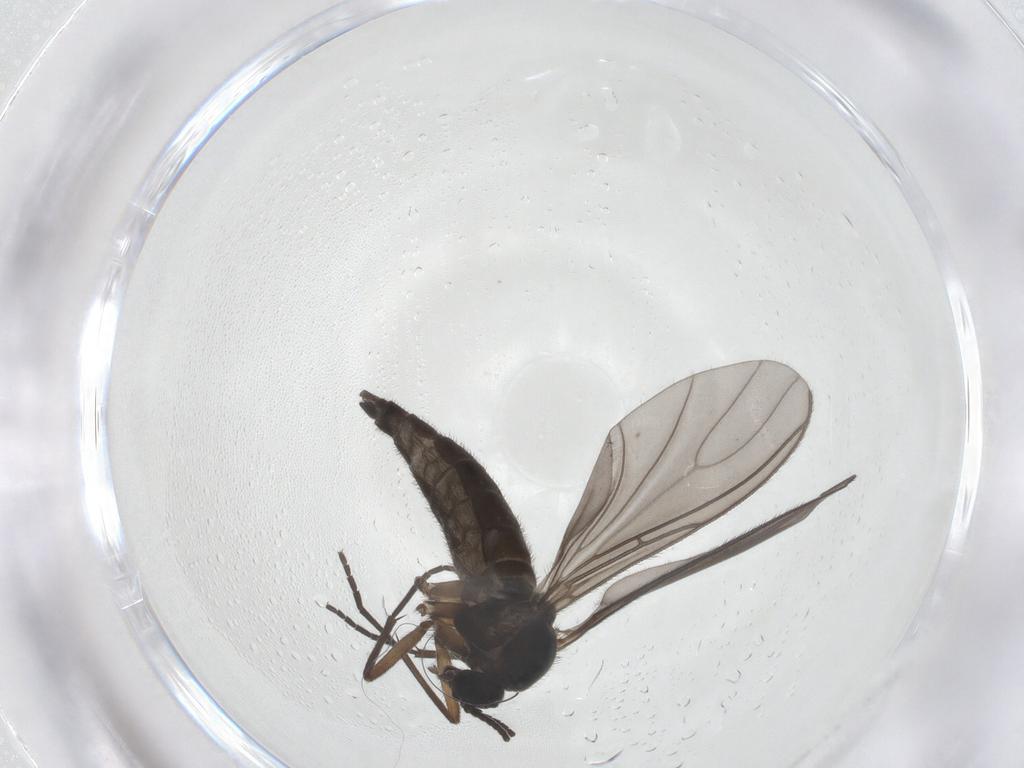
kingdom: Animalia
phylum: Arthropoda
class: Insecta
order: Diptera
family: Sciaridae
